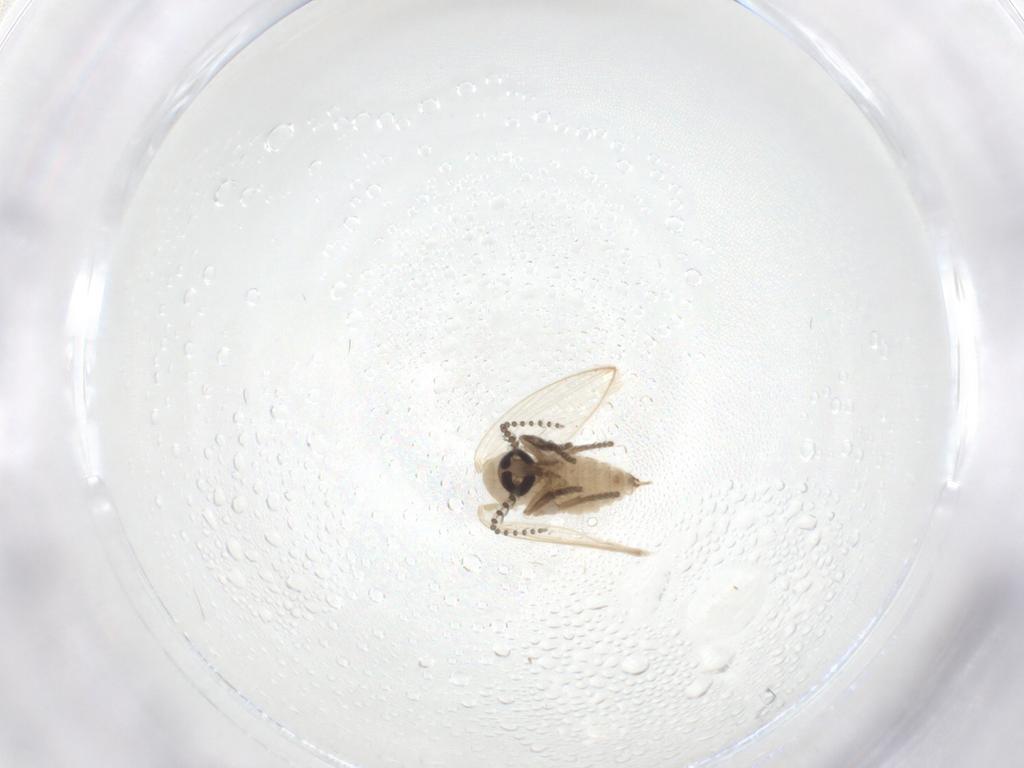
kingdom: Animalia
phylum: Arthropoda
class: Insecta
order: Diptera
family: Psychodidae
